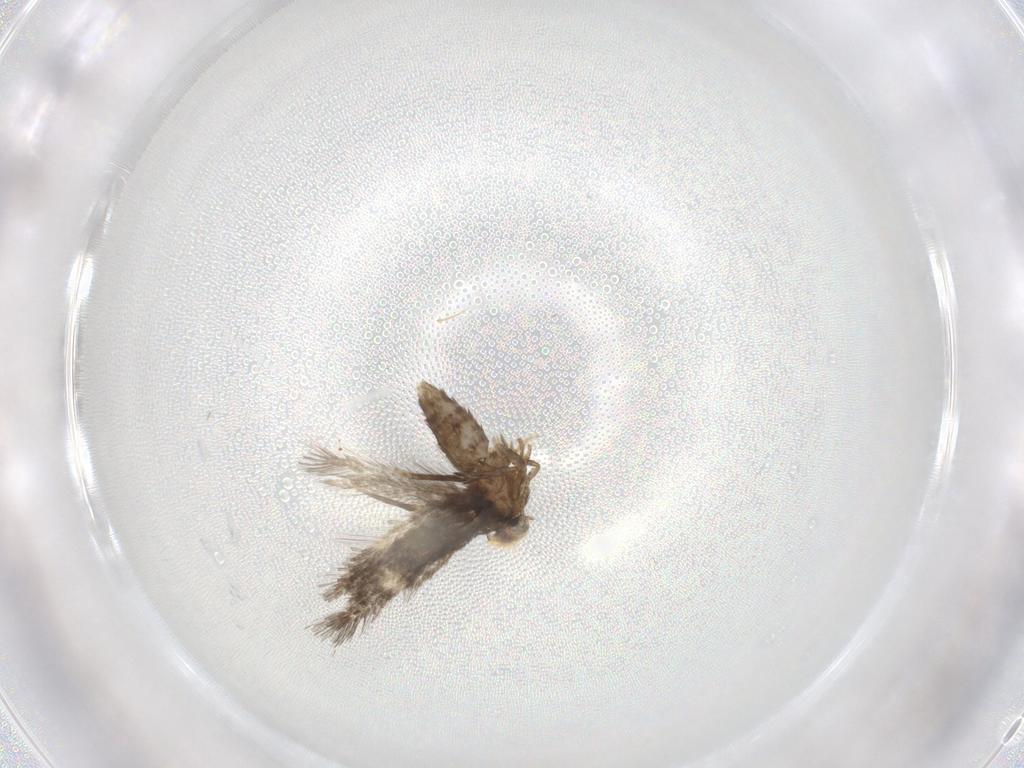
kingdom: Animalia
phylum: Arthropoda
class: Insecta
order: Lepidoptera
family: Nepticulidae
